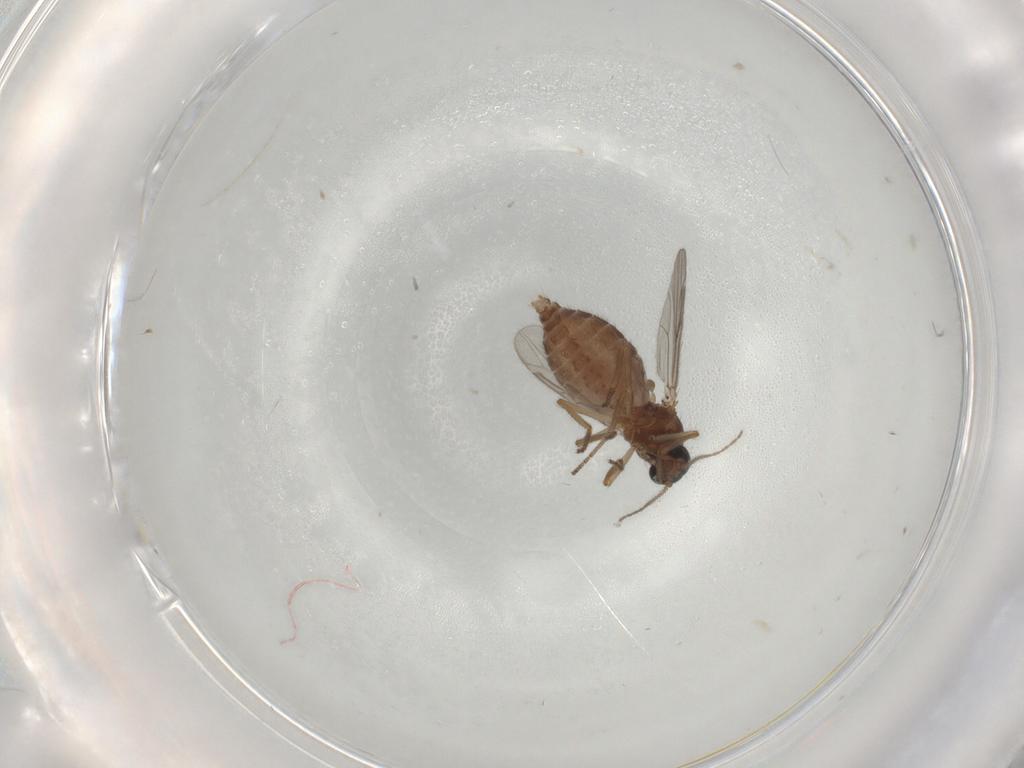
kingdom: Animalia
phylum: Arthropoda
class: Insecta
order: Diptera
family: Ceratopogonidae
